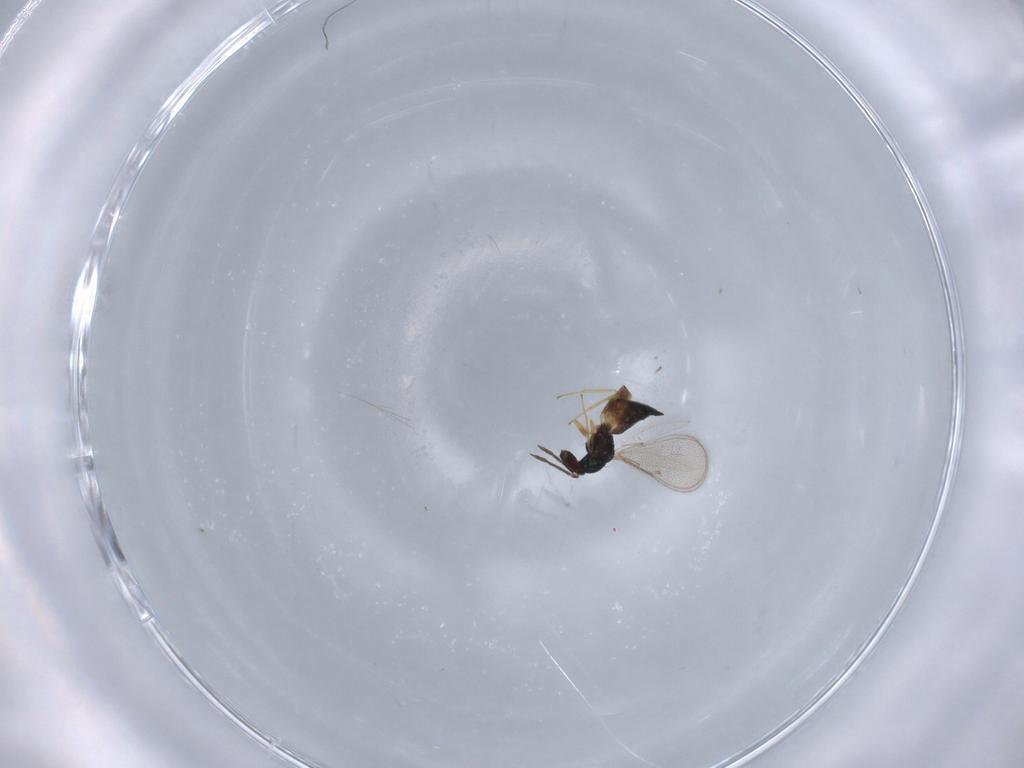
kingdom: Animalia
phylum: Arthropoda
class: Insecta
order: Hymenoptera
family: Eulophidae
